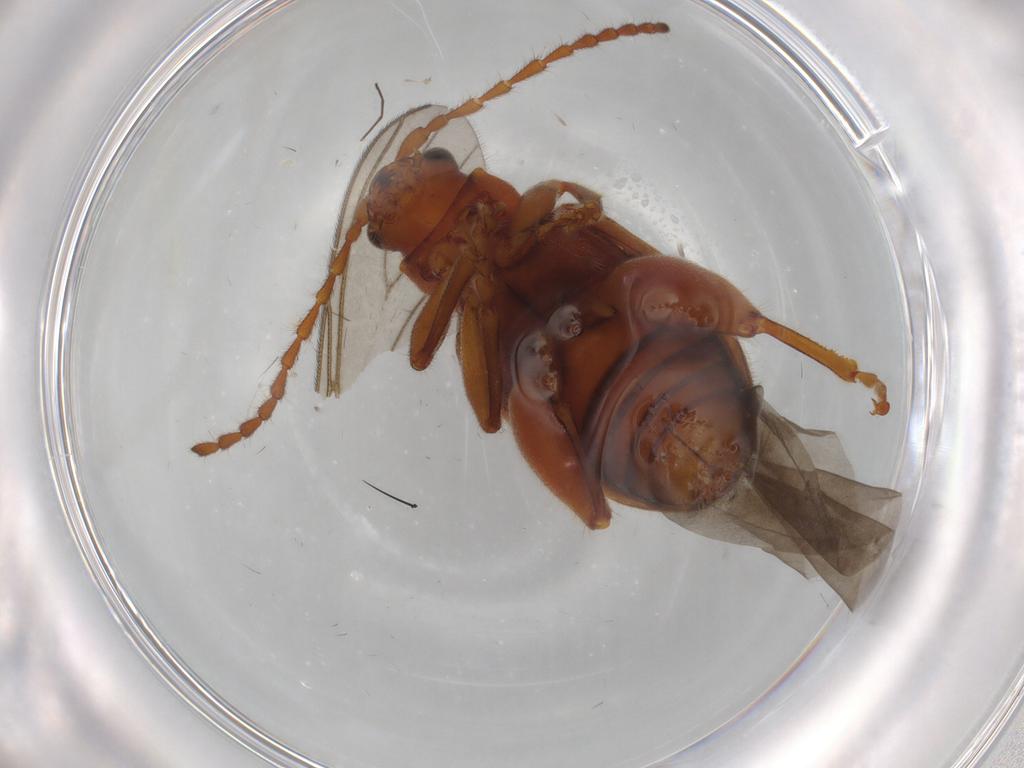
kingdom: Animalia
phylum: Arthropoda
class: Insecta
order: Coleoptera
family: Chrysomelidae
